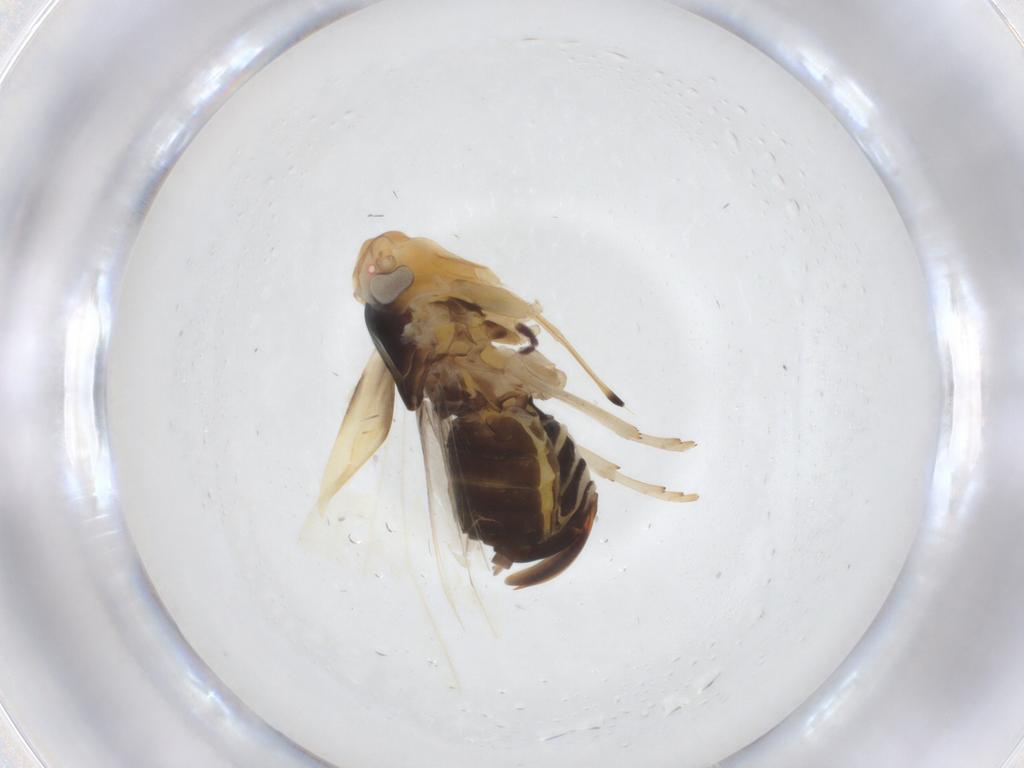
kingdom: Animalia
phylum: Arthropoda
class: Insecta
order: Hemiptera
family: Cixiidae
